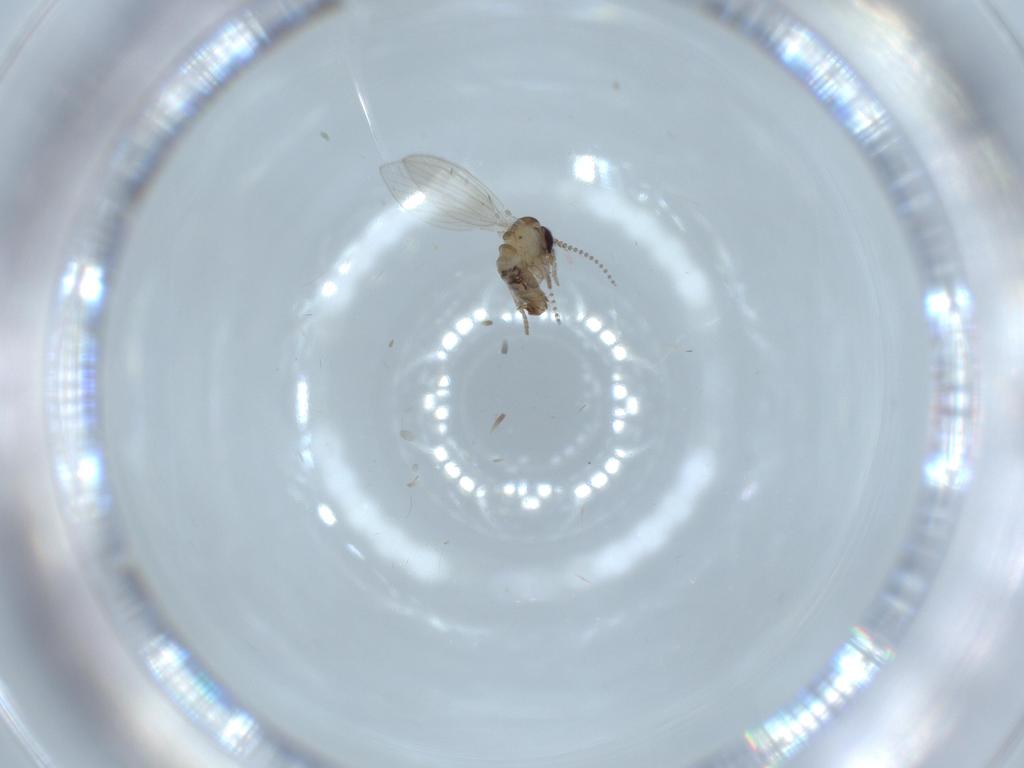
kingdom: Animalia
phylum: Arthropoda
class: Insecta
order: Diptera
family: Psychodidae
